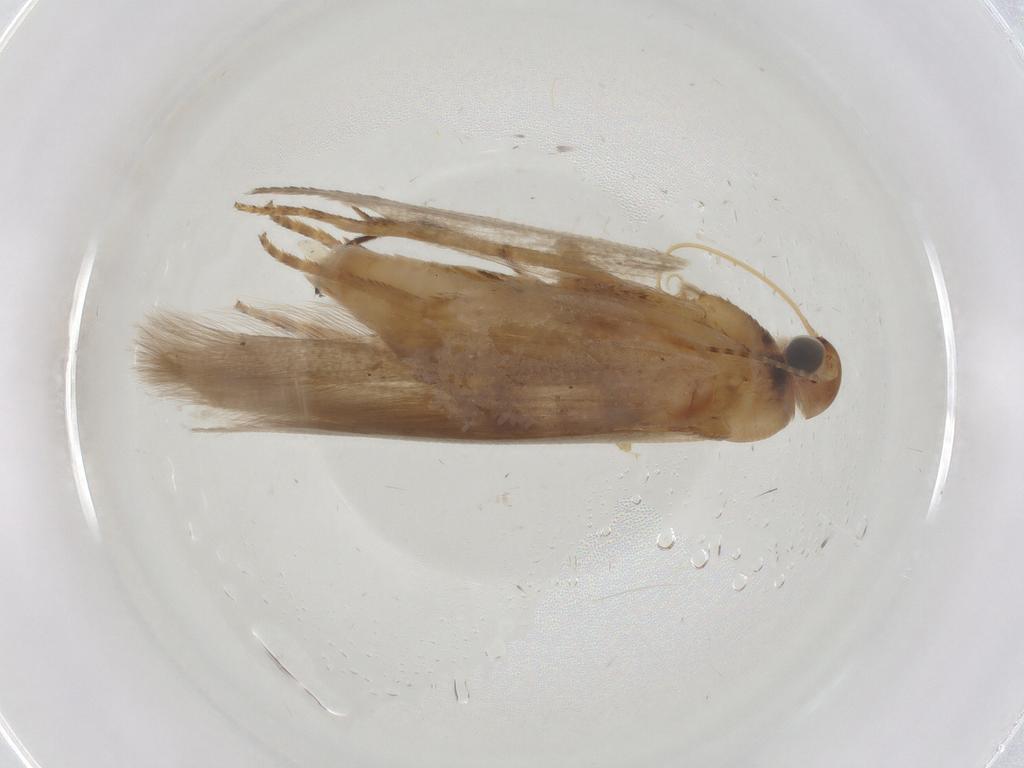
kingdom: Animalia
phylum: Arthropoda
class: Insecta
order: Lepidoptera
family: Gelechiidae
